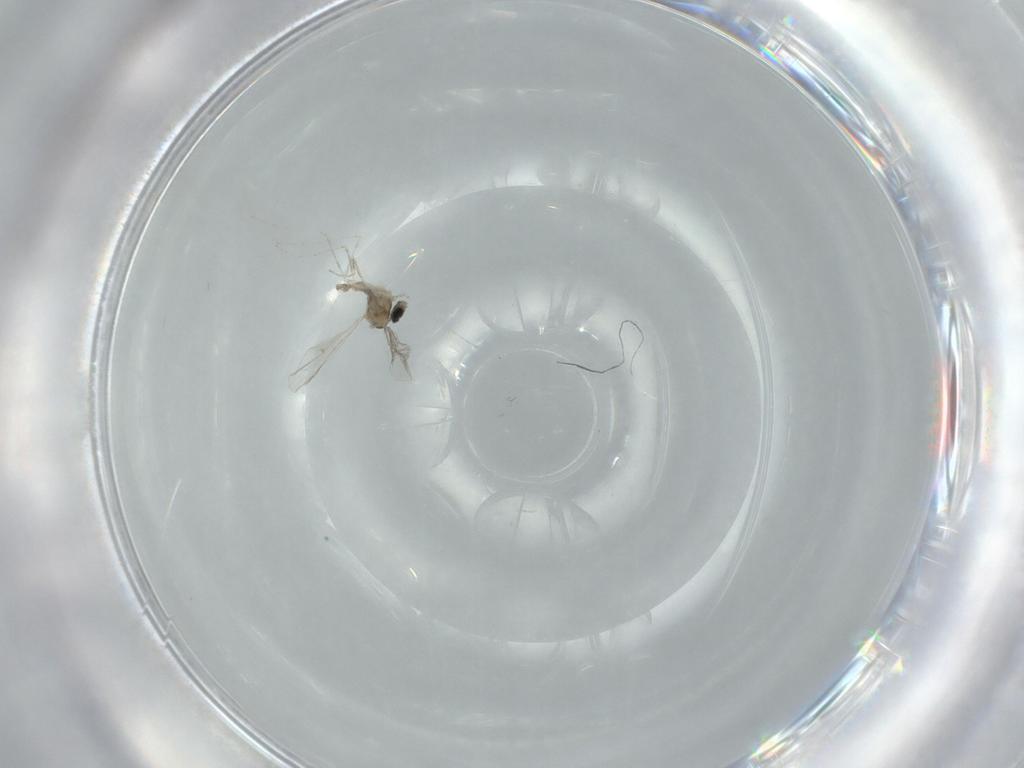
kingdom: Animalia
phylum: Arthropoda
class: Insecta
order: Diptera
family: Cecidomyiidae
